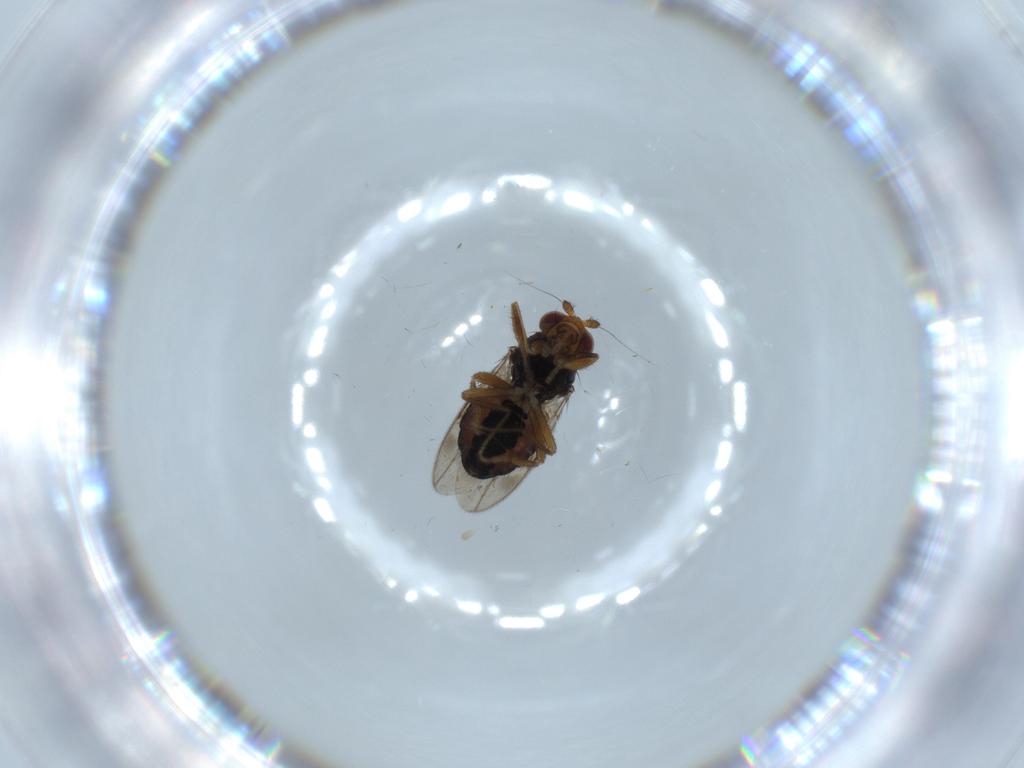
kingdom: Animalia
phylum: Arthropoda
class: Insecta
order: Diptera
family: Sphaeroceridae
